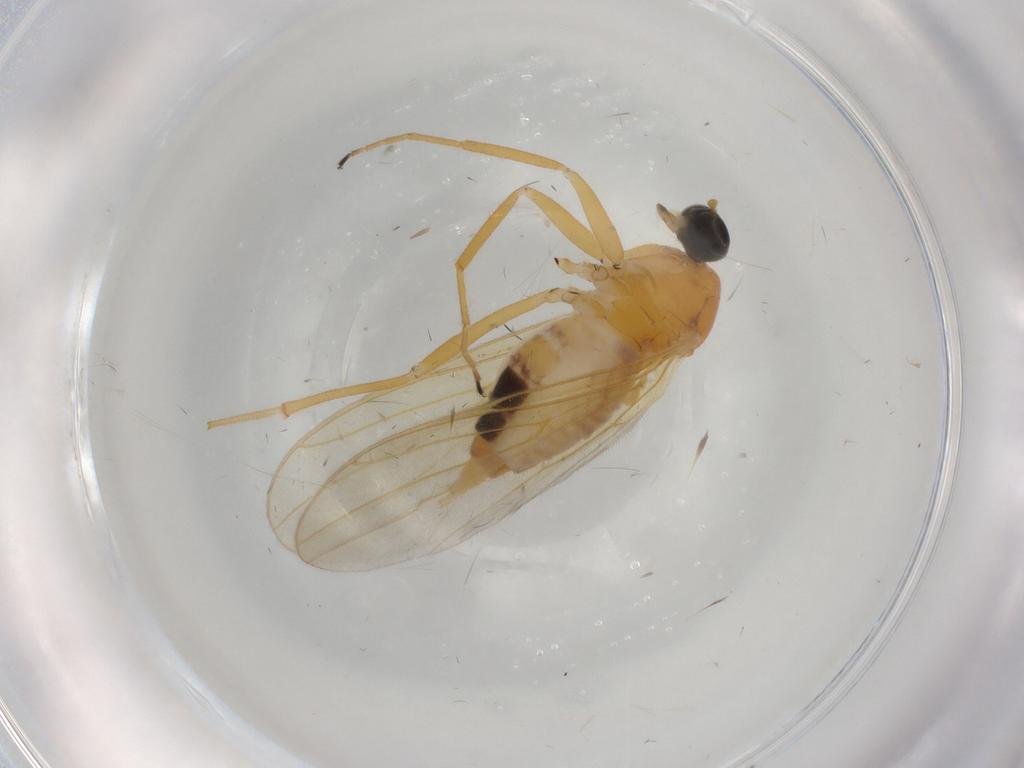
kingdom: Animalia
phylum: Arthropoda
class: Insecta
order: Diptera
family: Hybotidae
